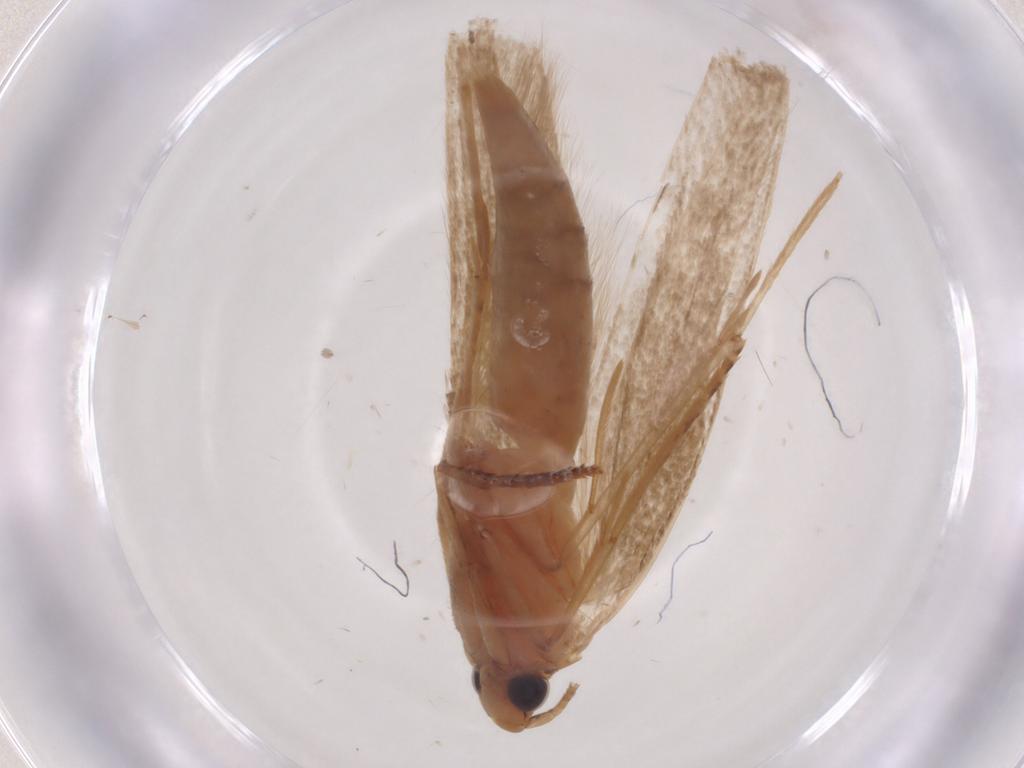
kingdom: Animalia
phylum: Arthropoda
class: Insecta
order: Lepidoptera
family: Tineidae
